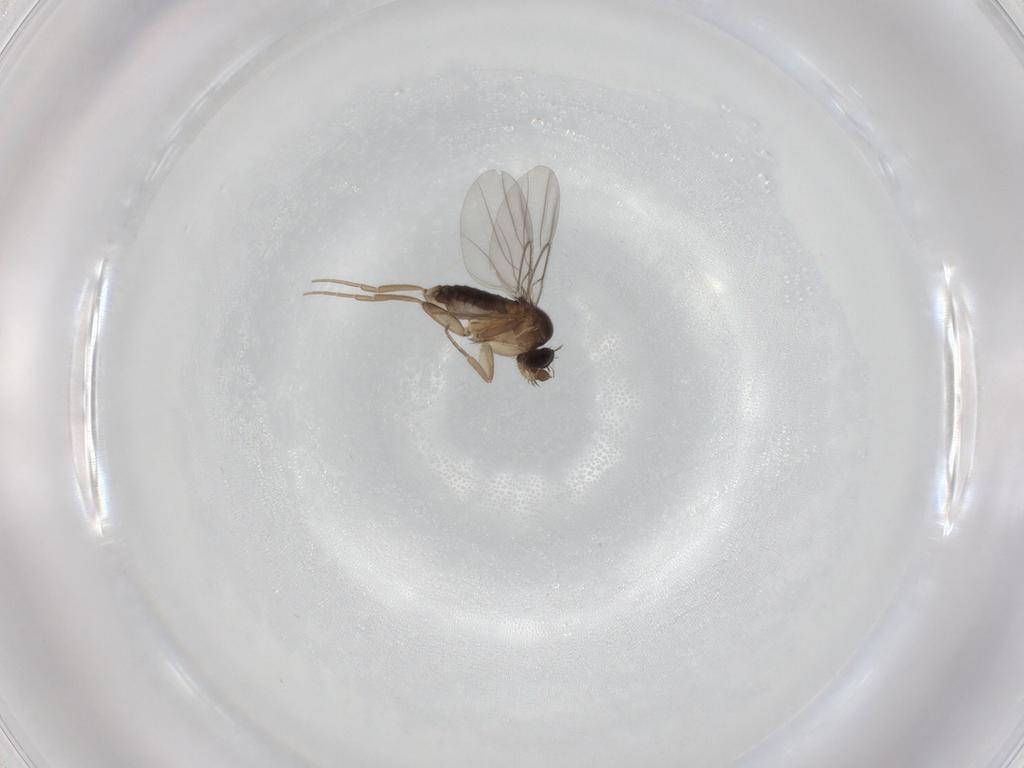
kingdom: Animalia
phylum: Arthropoda
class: Insecta
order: Diptera
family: Phoridae
